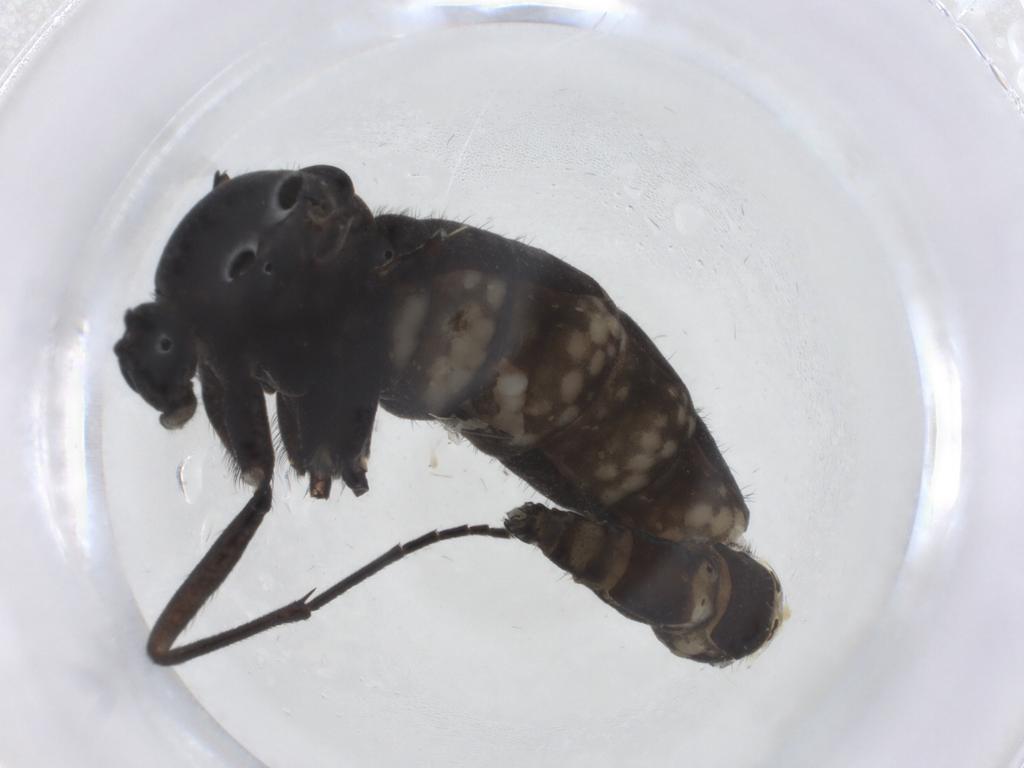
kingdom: Animalia
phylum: Arthropoda
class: Insecta
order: Diptera
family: Sciaridae
